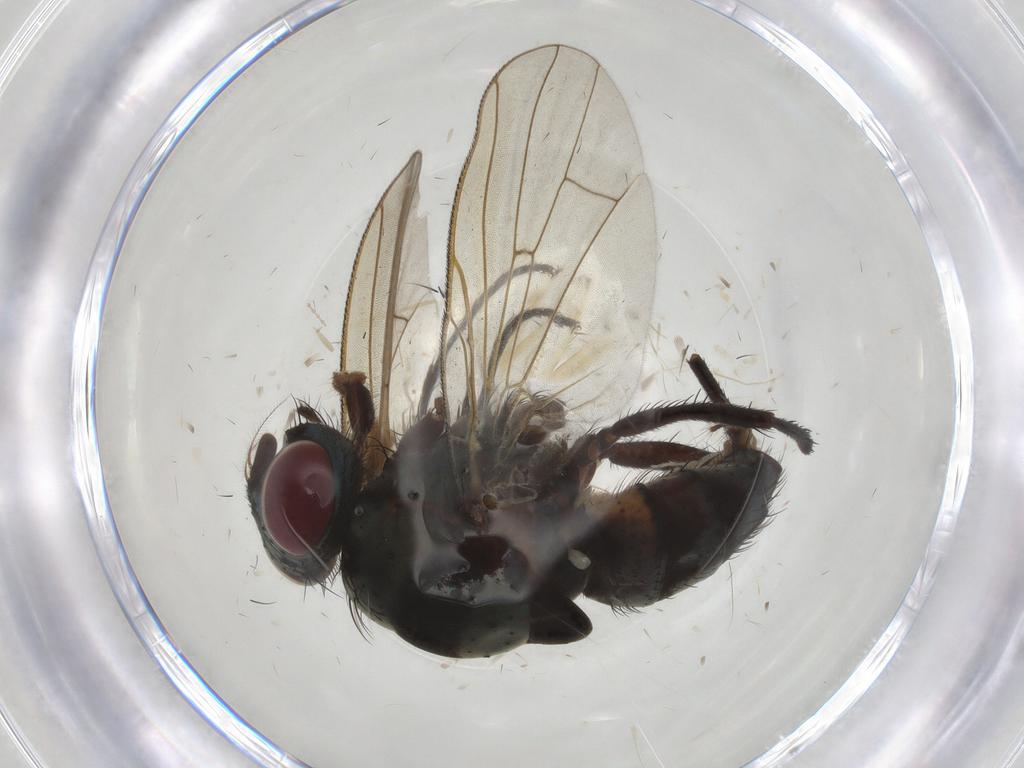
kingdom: Animalia
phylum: Arthropoda
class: Insecta
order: Diptera
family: Anthomyiidae
